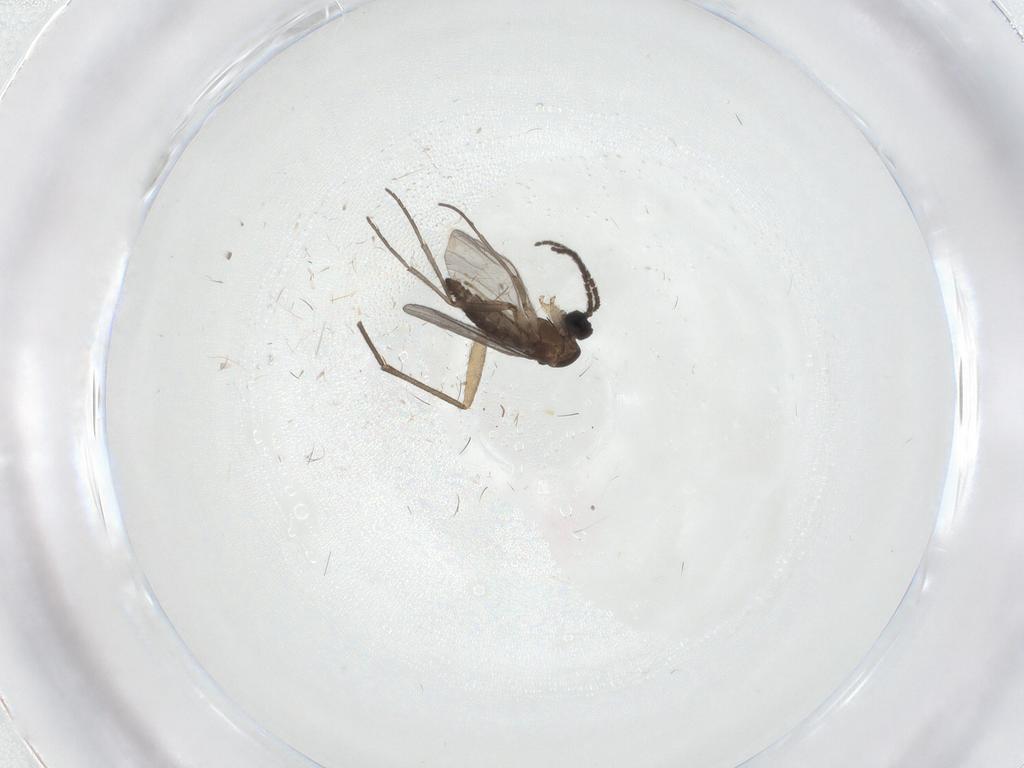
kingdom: Animalia
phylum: Arthropoda
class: Insecta
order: Diptera
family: Sciaridae
